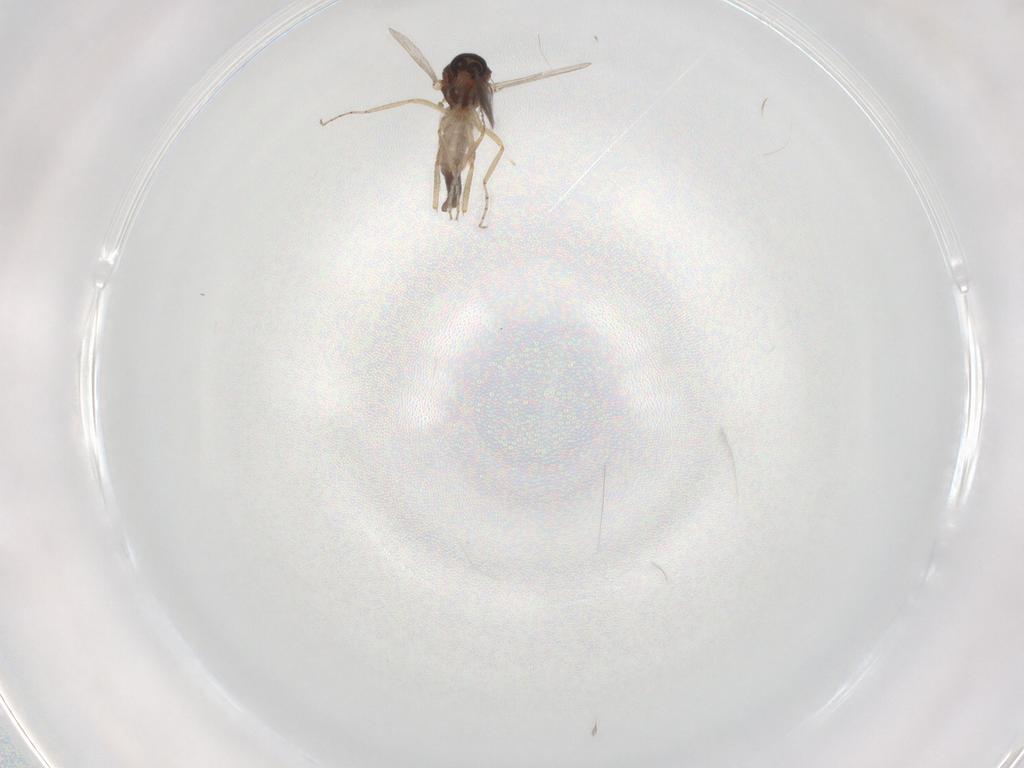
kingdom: Animalia
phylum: Arthropoda
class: Insecta
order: Diptera
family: Ceratopogonidae
